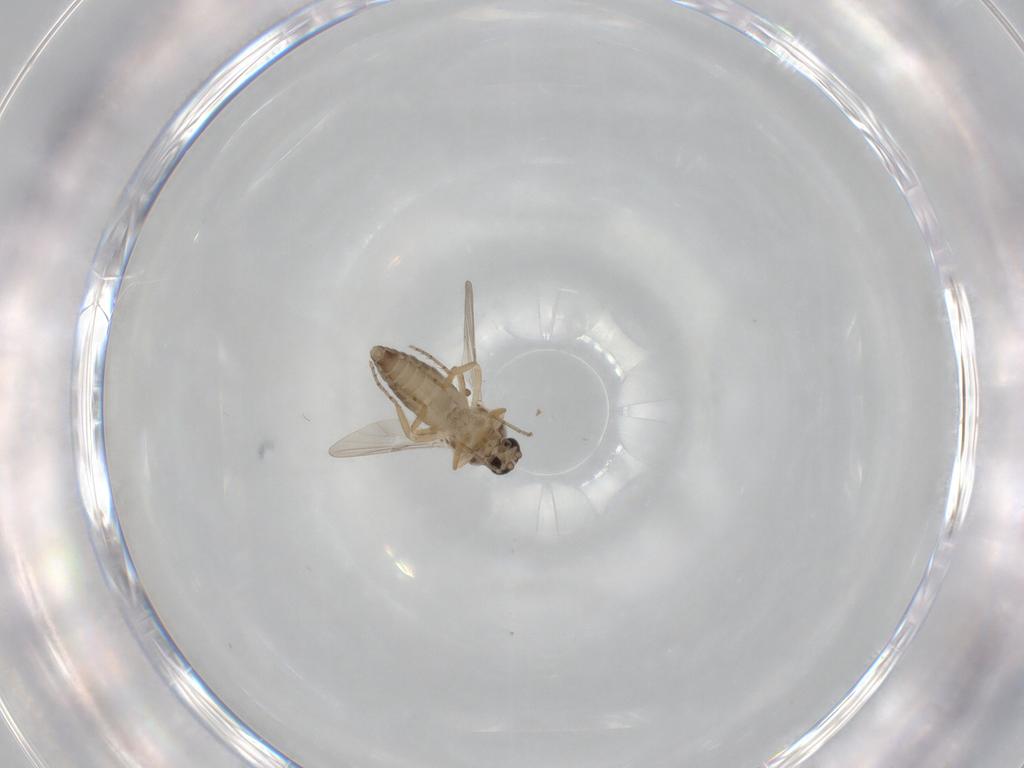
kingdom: Animalia
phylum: Arthropoda
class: Insecta
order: Diptera
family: Ceratopogonidae
